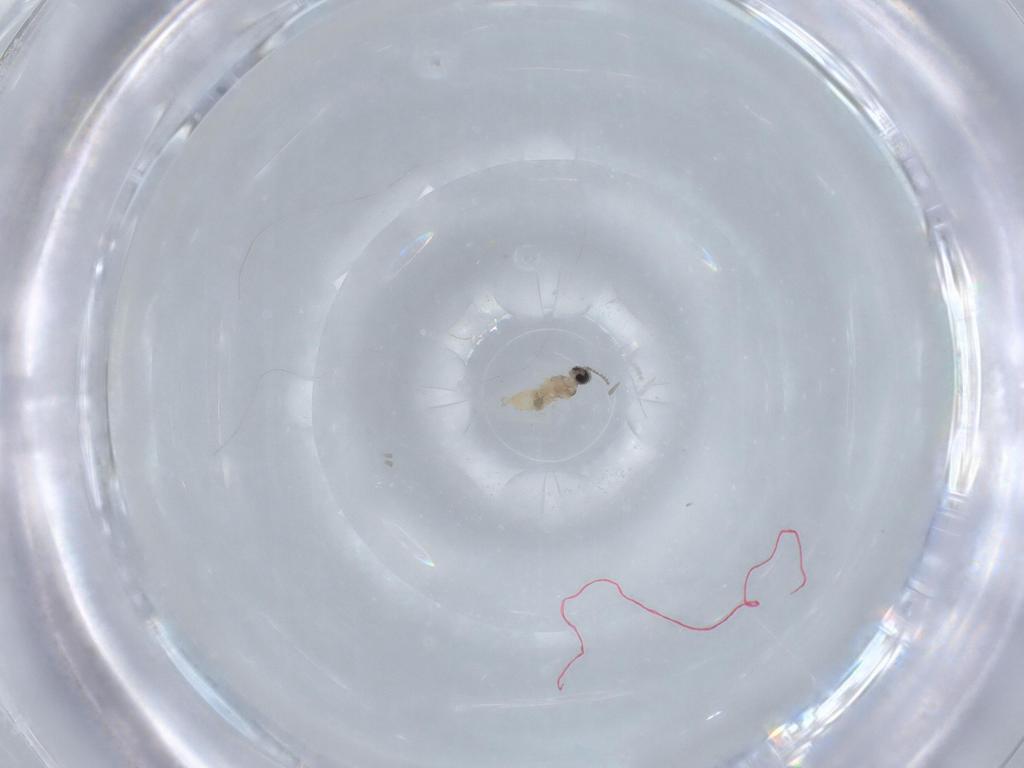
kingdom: Animalia
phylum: Arthropoda
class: Insecta
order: Diptera
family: Cecidomyiidae
